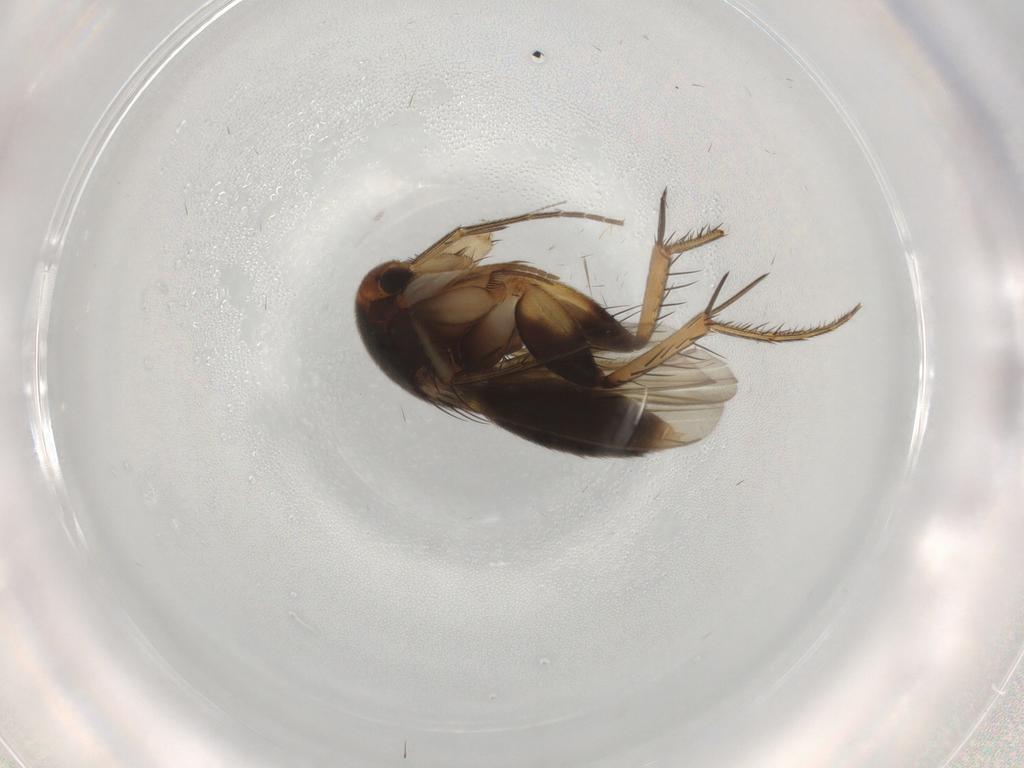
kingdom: Animalia
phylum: Arthropoda
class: Insecta
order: Diptera
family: Mycetophilidae
